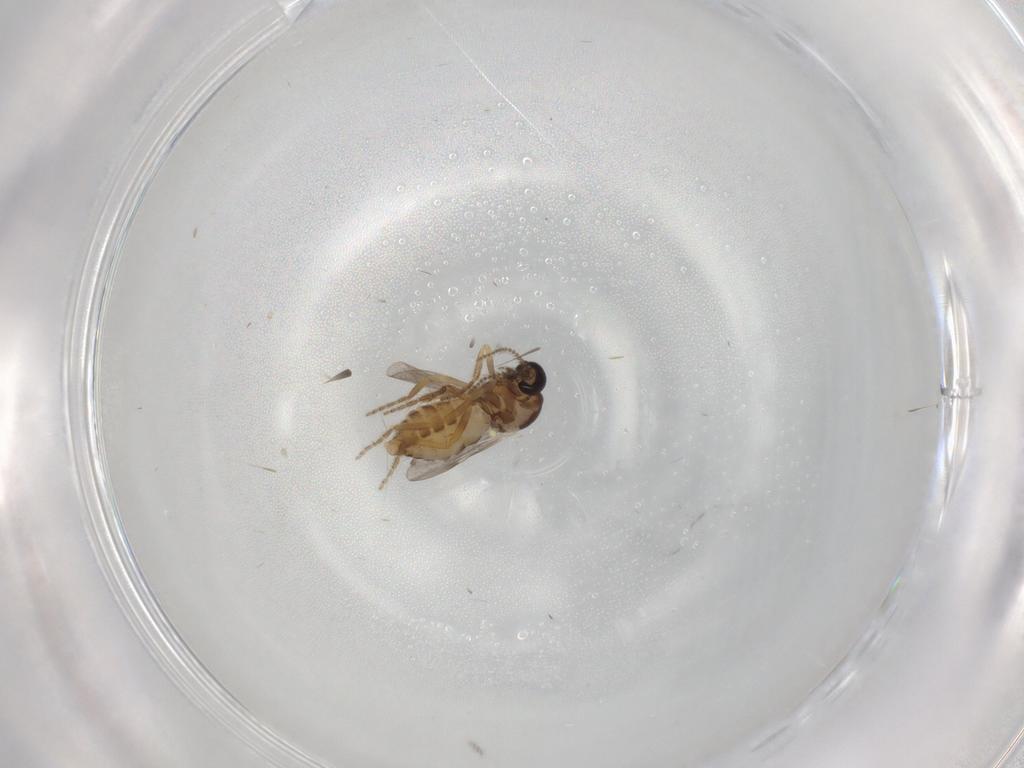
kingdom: Animalia
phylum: Arthropoda
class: Insecta
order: Diptera
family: Ceratopogonidae
